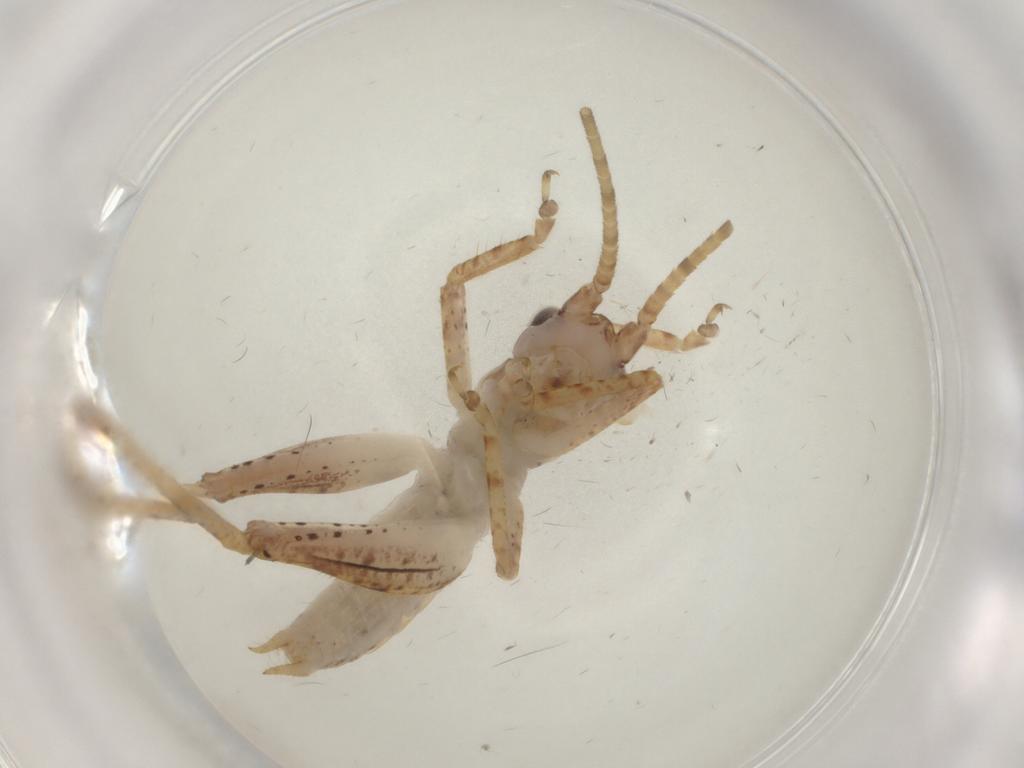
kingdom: Animalia
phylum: Arthropoda
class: Insecta
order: Orthoptera
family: Gryllidae
